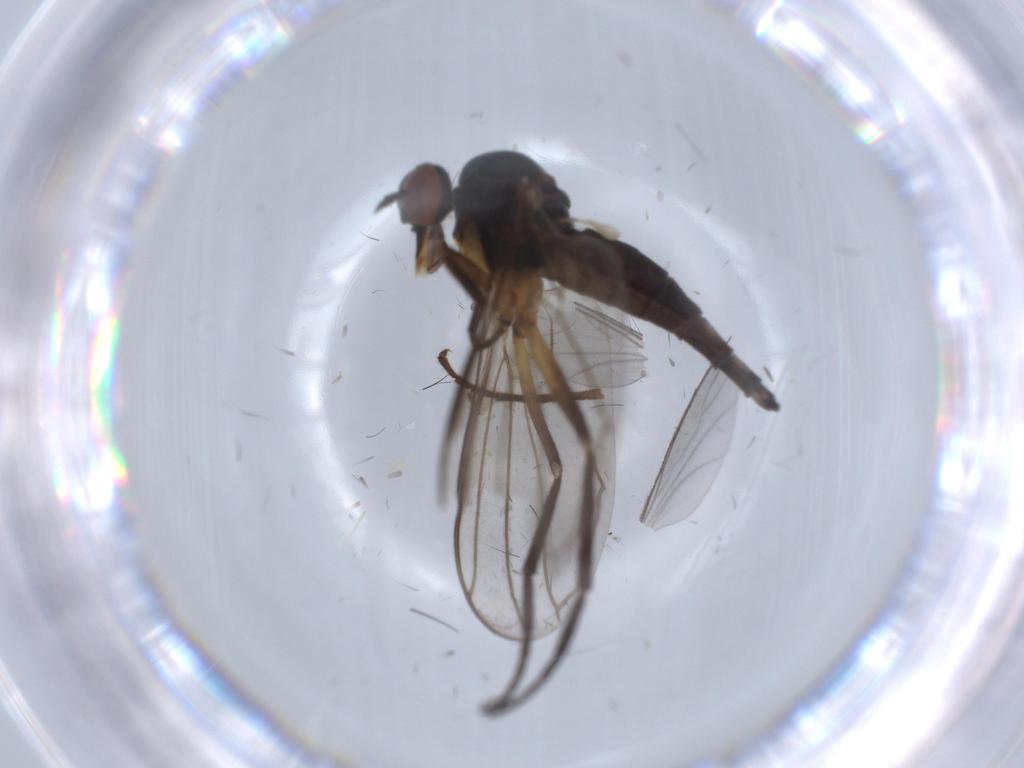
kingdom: Animalia
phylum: Arthropoda
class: Insecta
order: Diptera
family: Empididae
